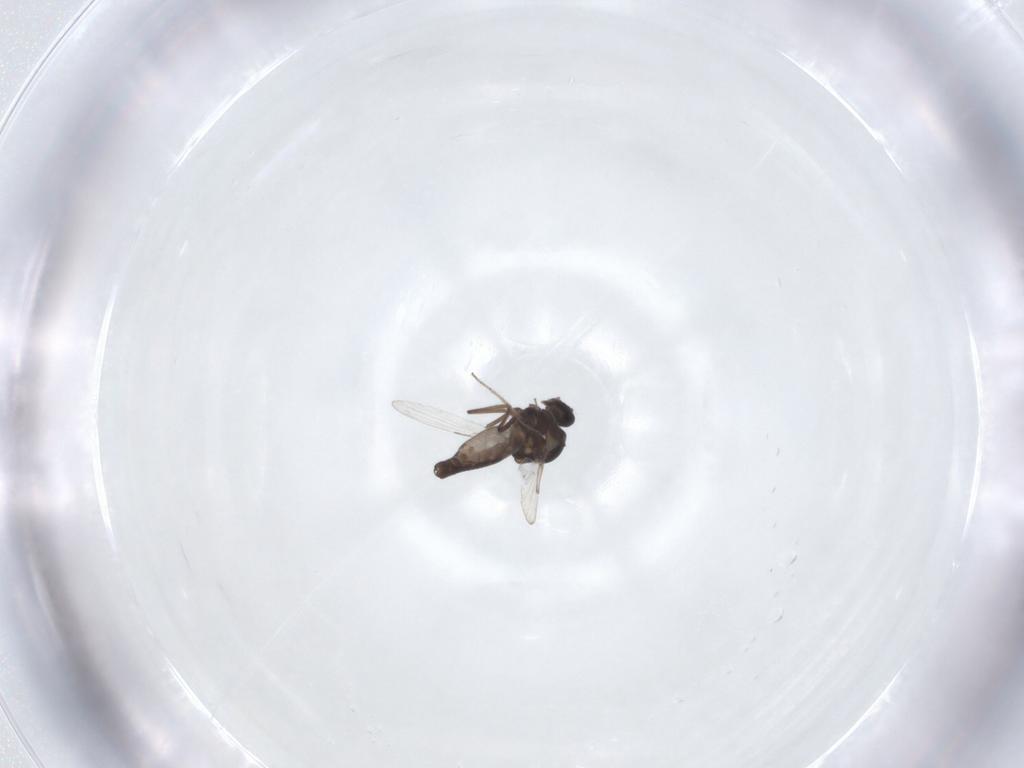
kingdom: Animalia
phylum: Arthropoda
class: Insecta
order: Diptera
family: Ceratopogonidae
